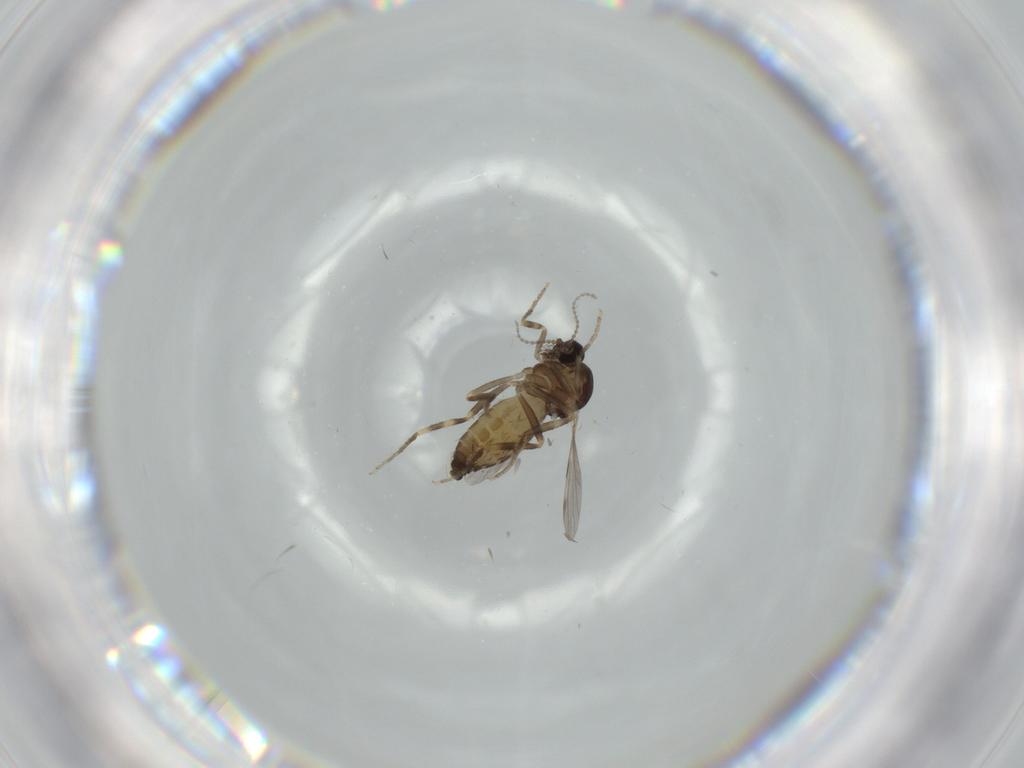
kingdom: Animalia
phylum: Arthropoda
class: Insecta
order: Diptera
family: Ceratopogonidae
